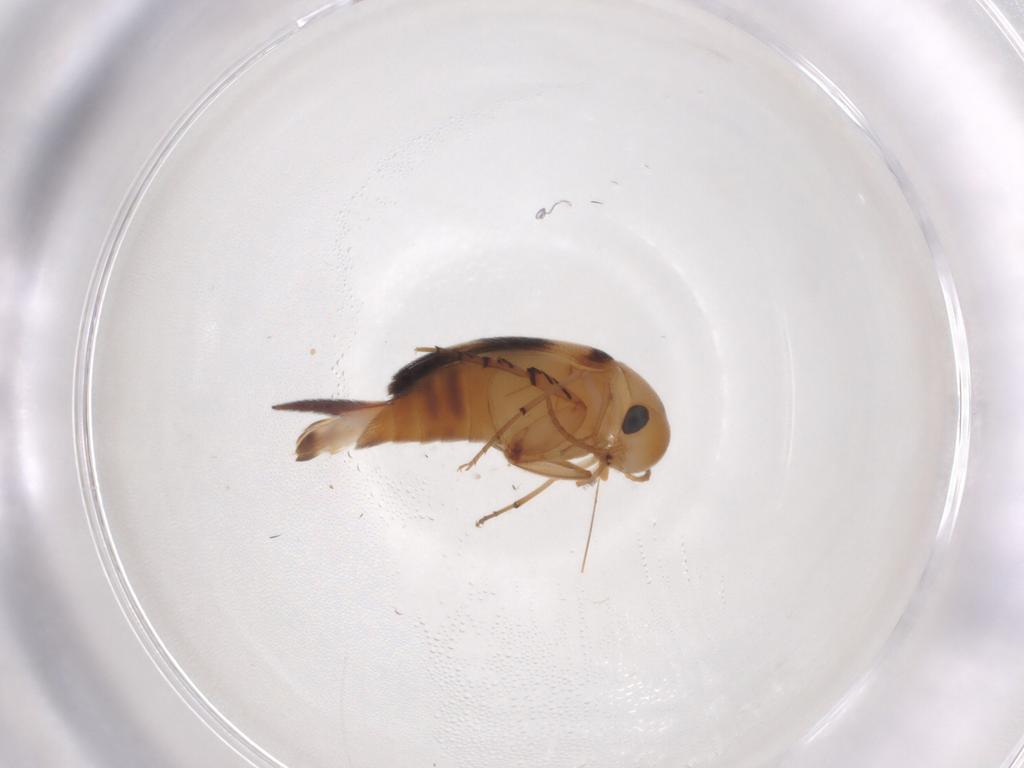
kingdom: Animalia
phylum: Arthropoda
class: Insecta
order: Coleoptera
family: Mordellidae
